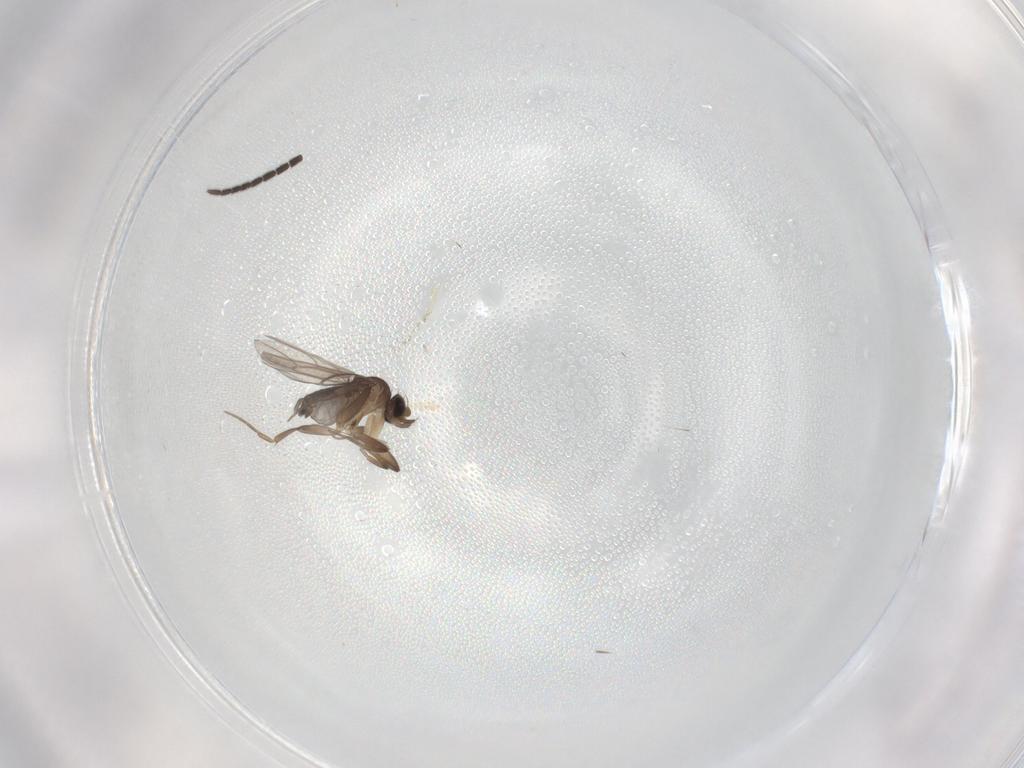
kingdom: Animalia
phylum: Arthropoda
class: Insecta
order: Diptera
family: Sciaridae
